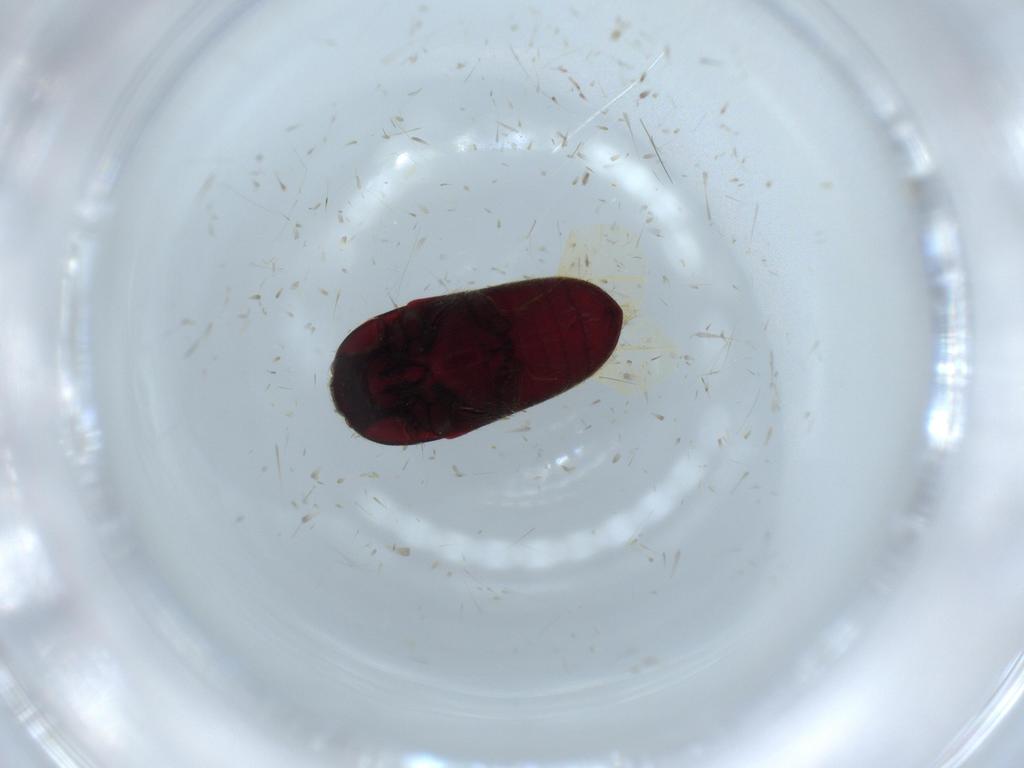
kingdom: Animalia
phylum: Arthropoda
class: Insecta
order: Coleoptera
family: Throscidae
